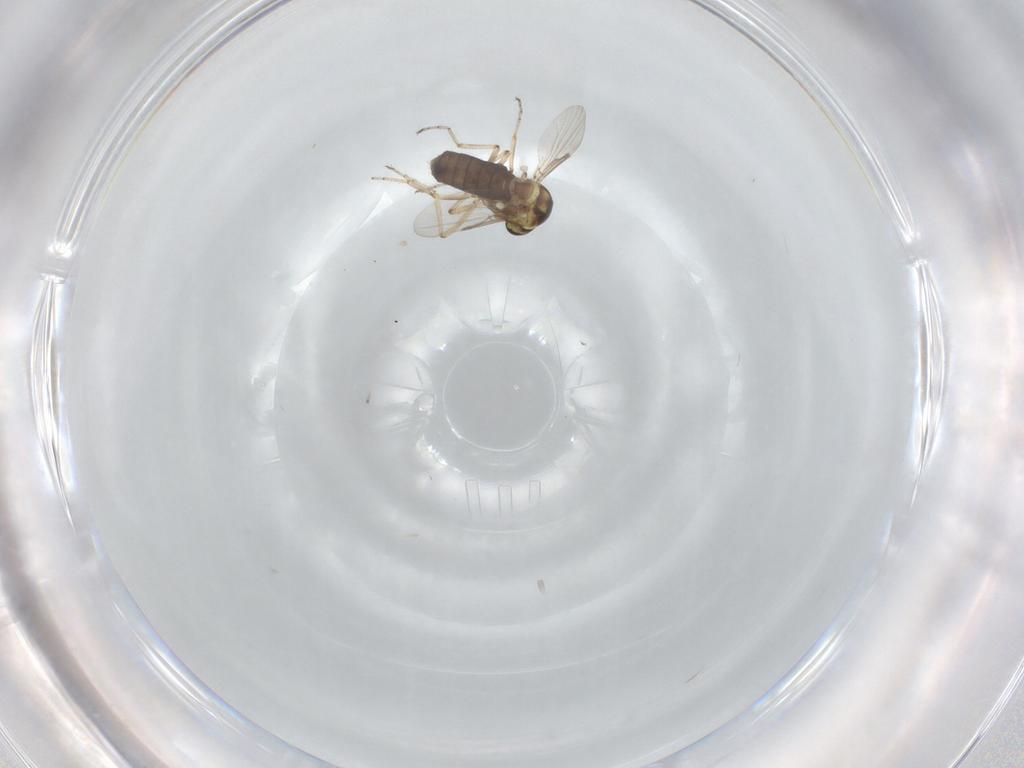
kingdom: Animalia
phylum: Arthropoda
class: Insecta
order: Diptera
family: Ceratopogonidae
